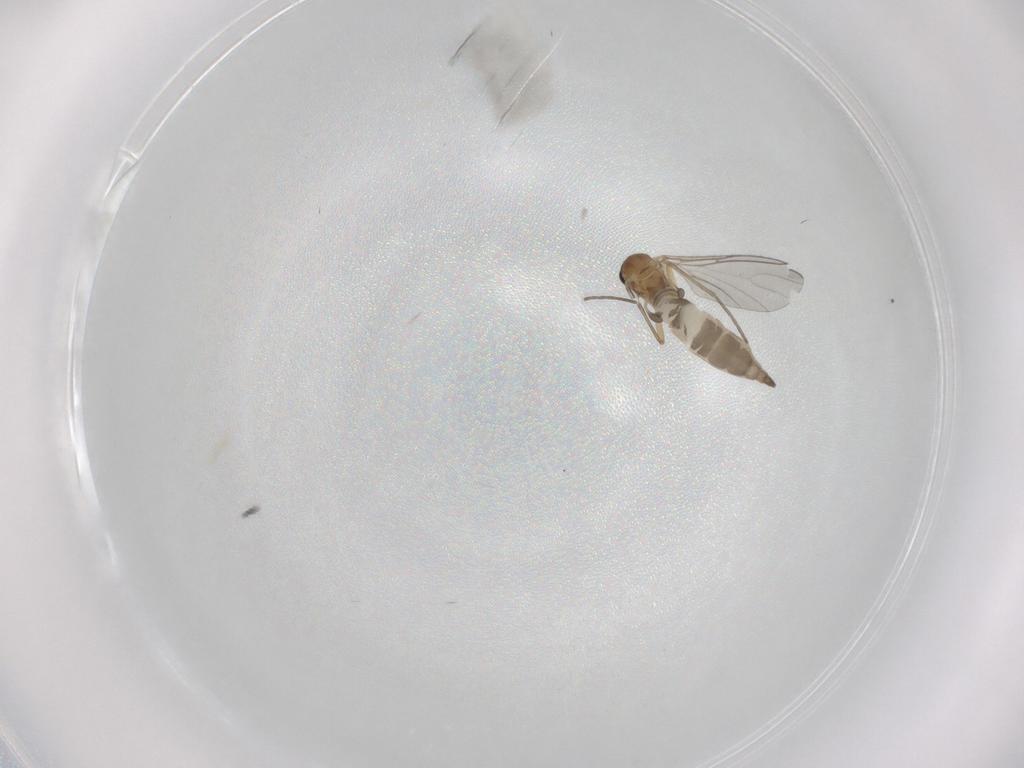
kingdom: Animalia
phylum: Arthropoda
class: Insecta
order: Diptera
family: Sciaridae
